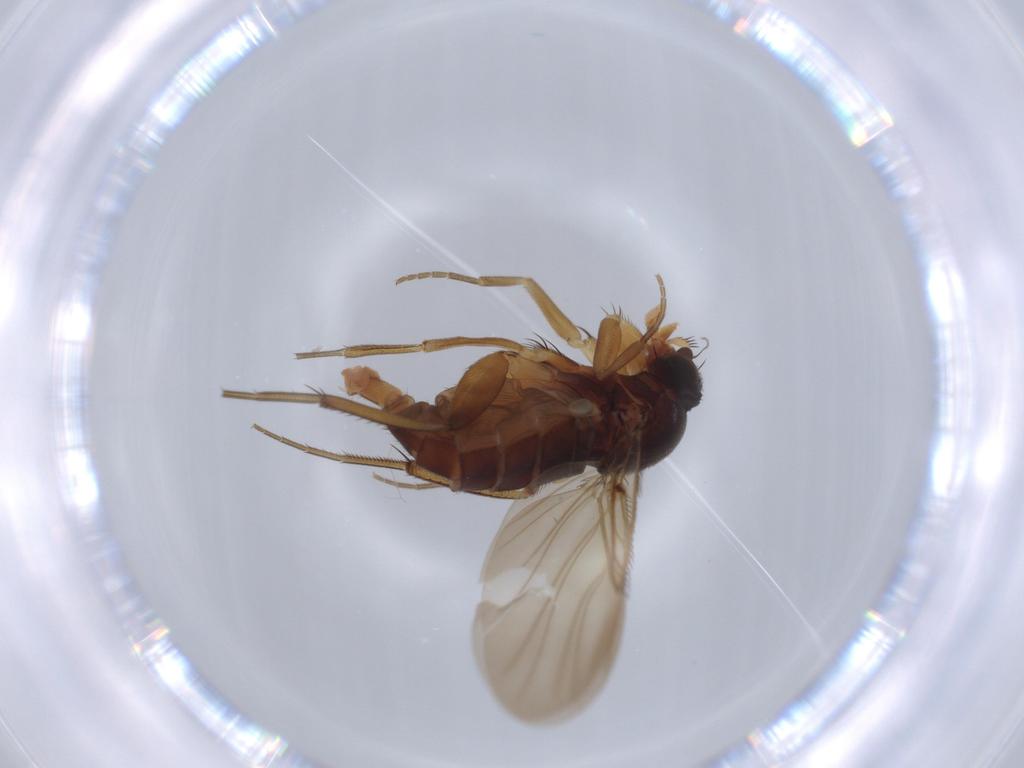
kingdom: Animalia
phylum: Arthropoda
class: Insecta
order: Diptera
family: Phoridae
